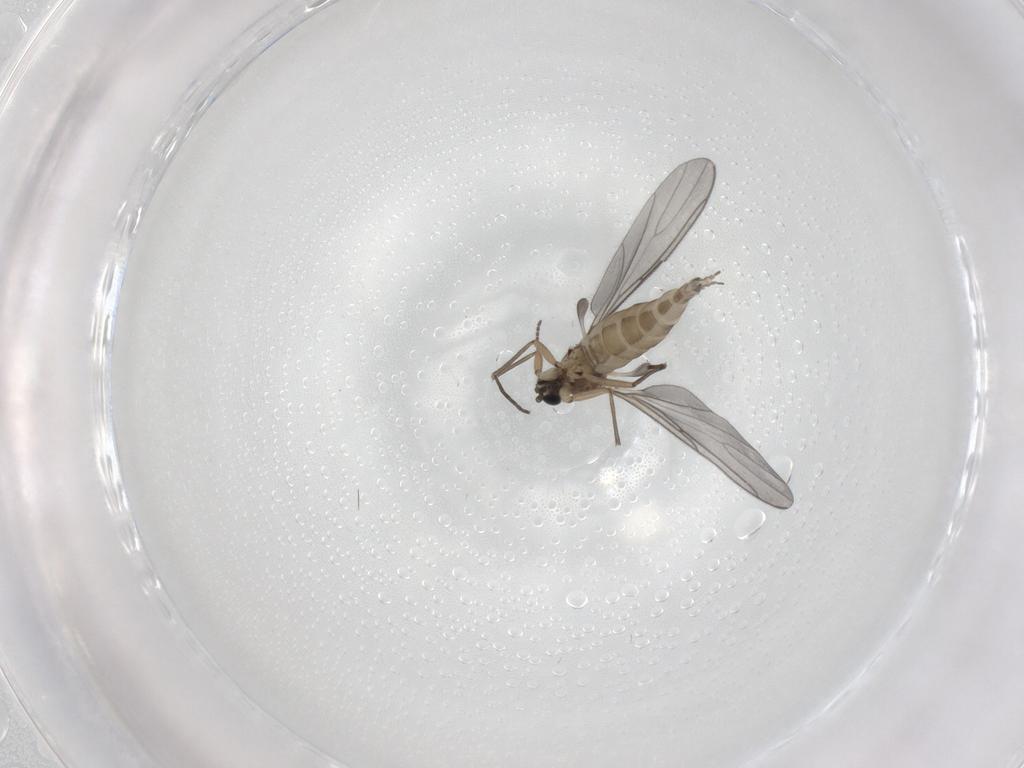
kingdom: Animalia
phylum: Arthropoda
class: Insecta
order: Diptera
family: Sciaridae
